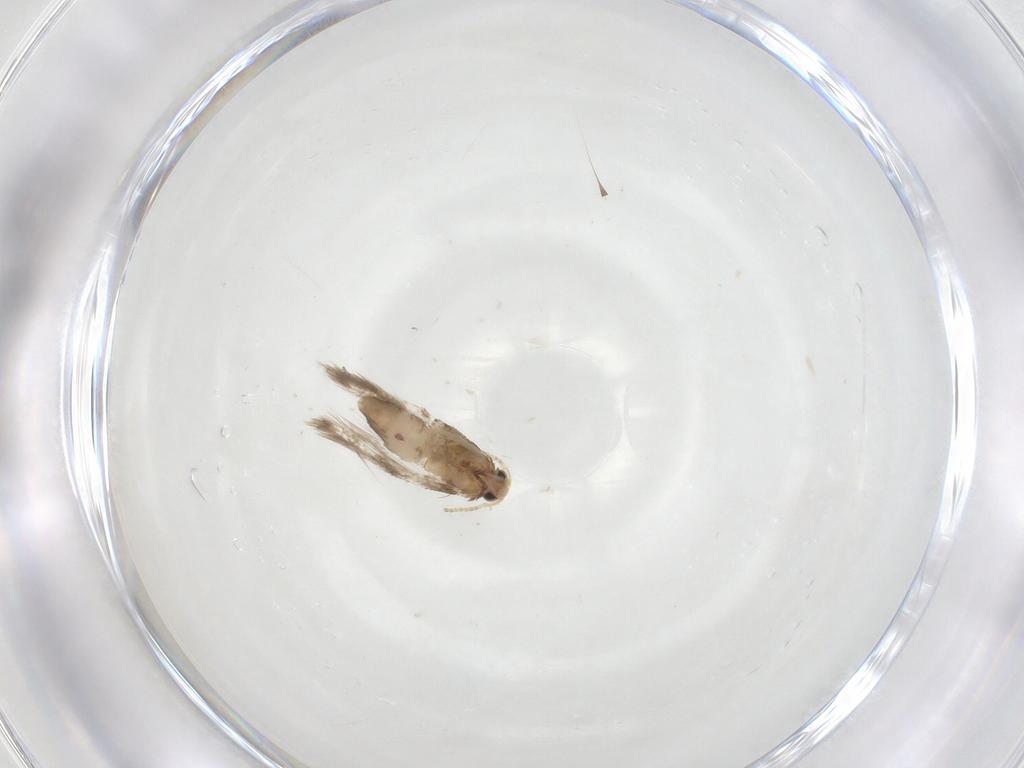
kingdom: Animalia
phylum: Arthropoda
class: Insecta
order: Lepidoptera
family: Nepticulidae
